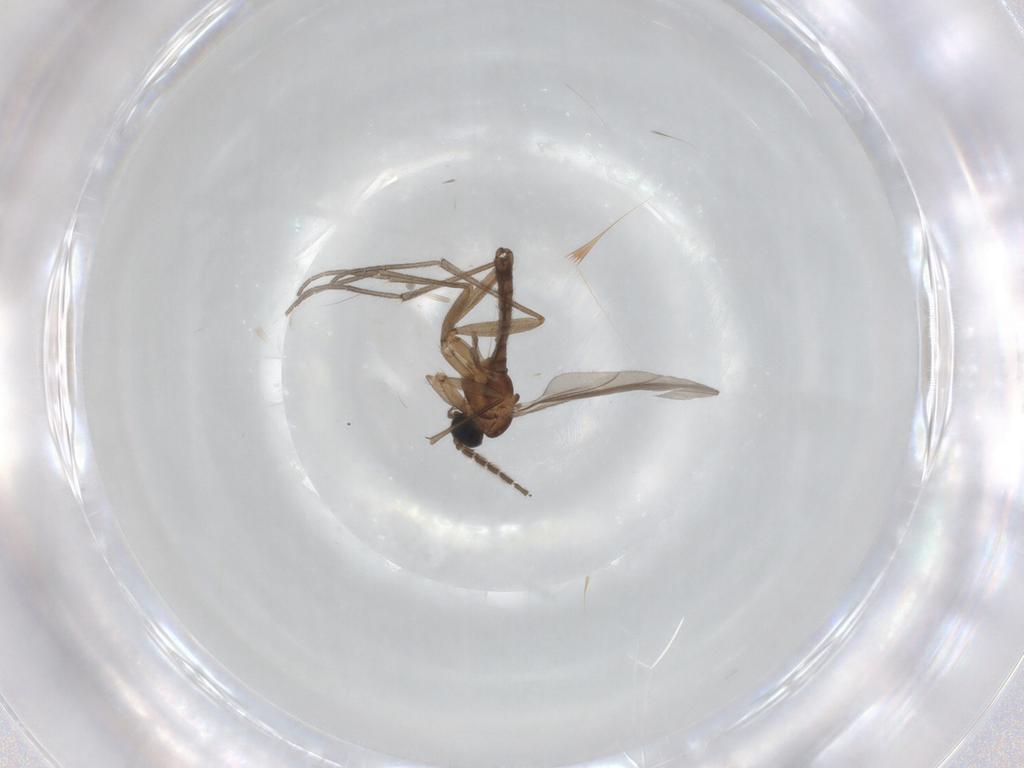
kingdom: Animalia
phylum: Arthropoda
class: Insecta
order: Diptera
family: Sciaridae
